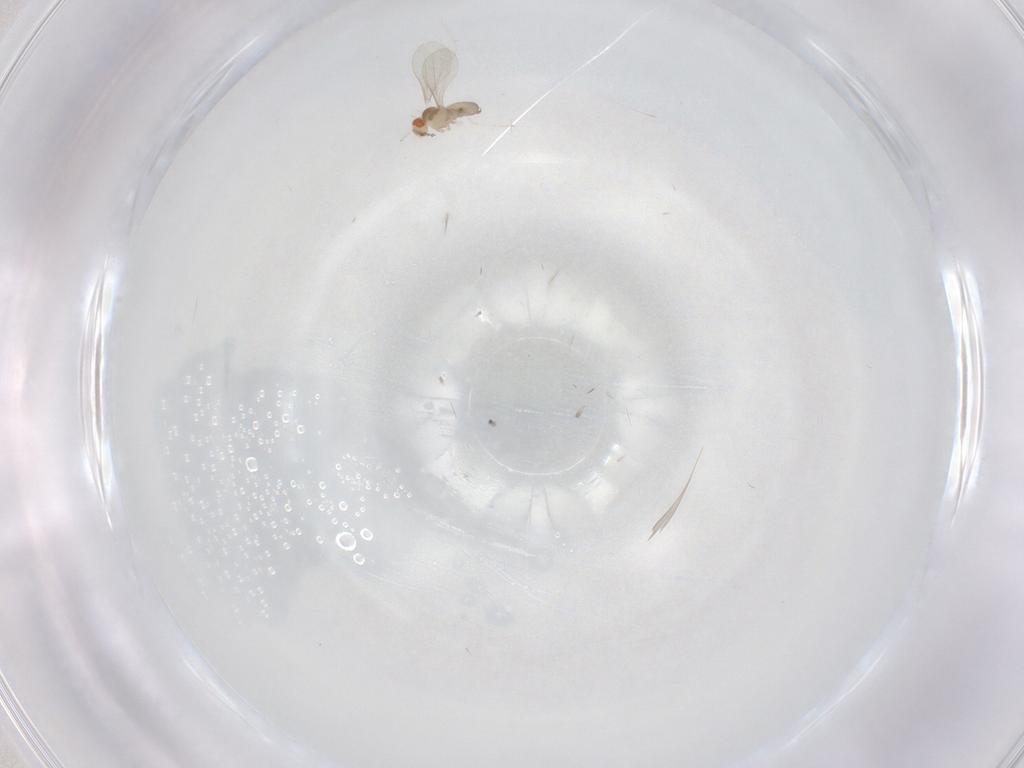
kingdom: Animalia
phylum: Arthropoda
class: Insecta
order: Diptera
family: Cecidomyiidae
